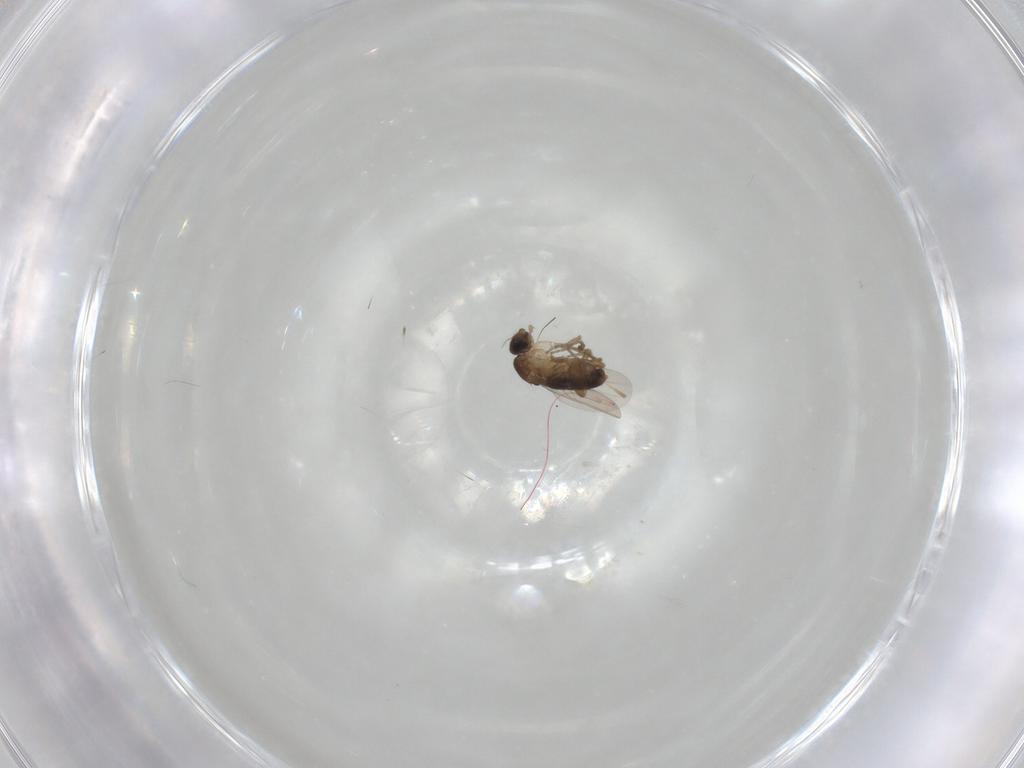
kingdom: Animalia
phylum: Arthropoda
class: Insecta
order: Diptera
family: Phoridae
